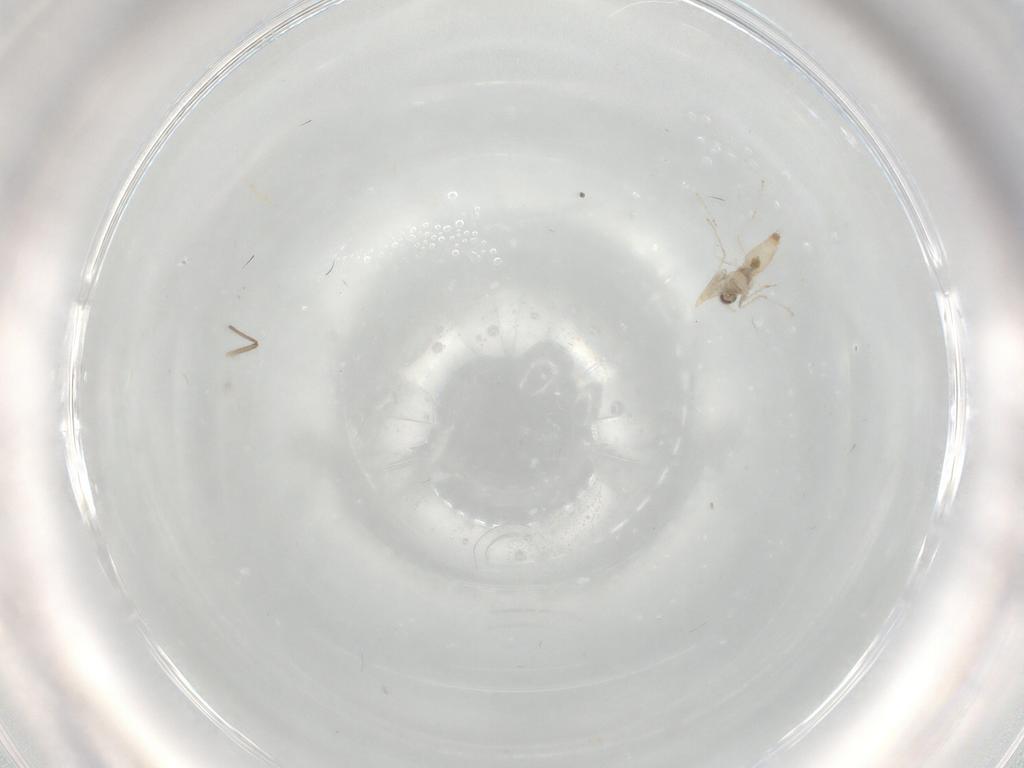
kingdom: Animalia
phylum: Arthropoda
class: Insecta
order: Diptera
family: Cecidomyiidae
